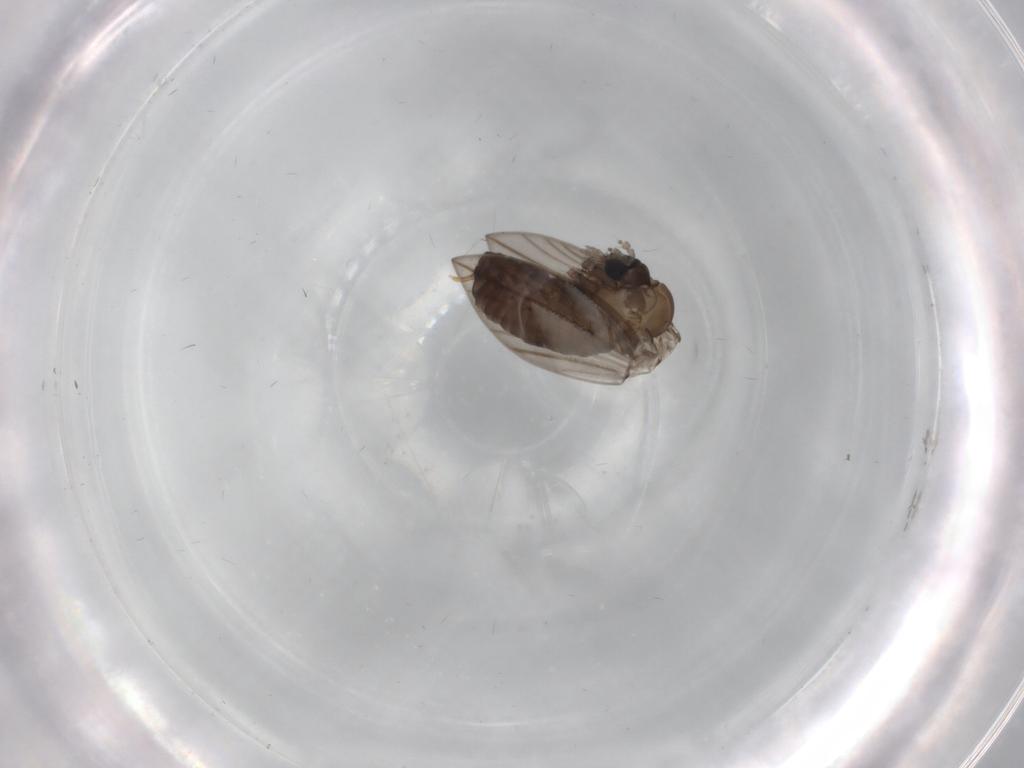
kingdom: Animalia
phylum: Arthropoda
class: Insecta
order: Diptera
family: Psychodidae
